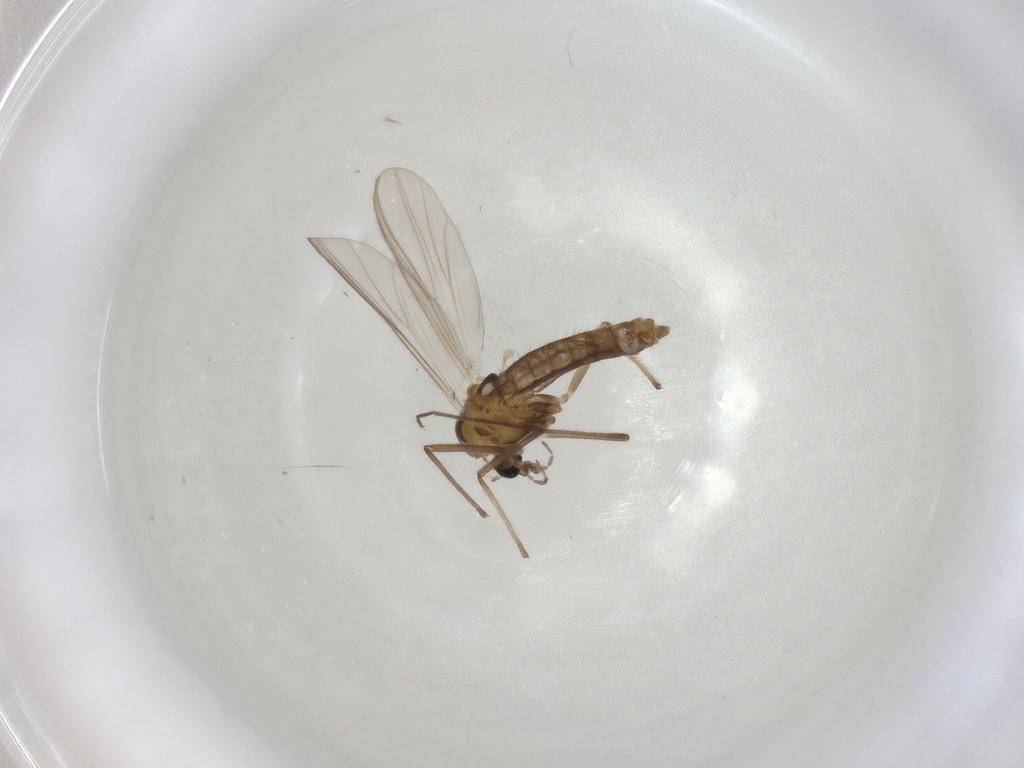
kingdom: Animalia
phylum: Arthropoda
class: Insecta
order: Diptera
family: Chironomidae
